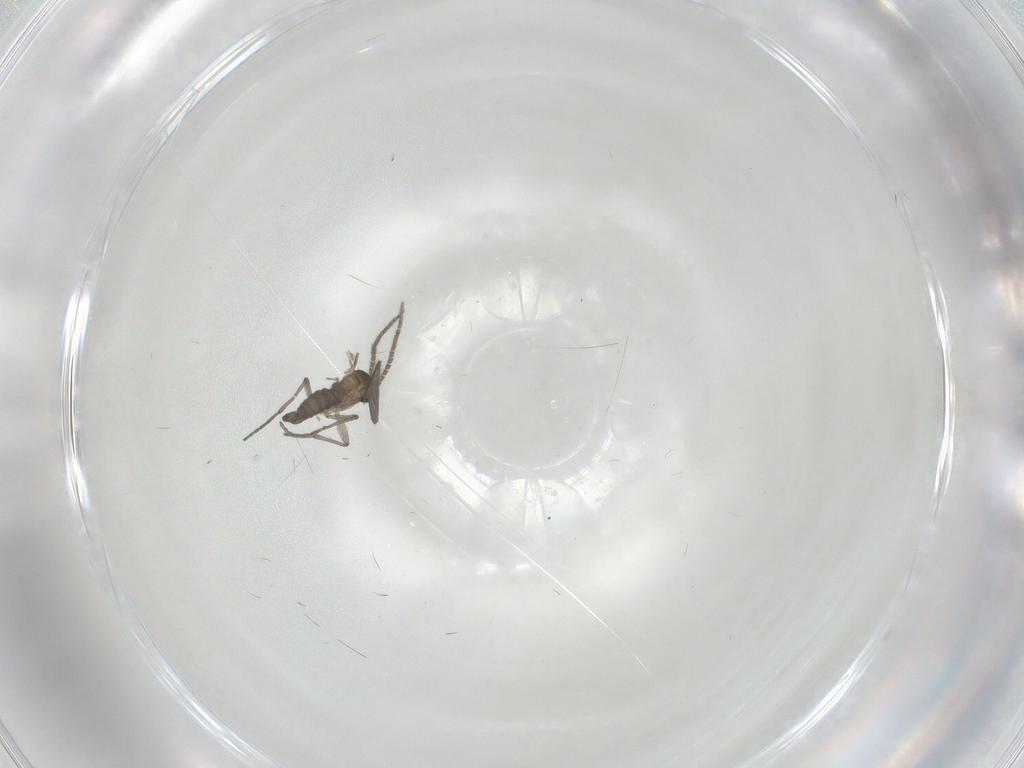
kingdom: Animalia
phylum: Arthropoda
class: Insecta
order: Diptera
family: Sciaridae
